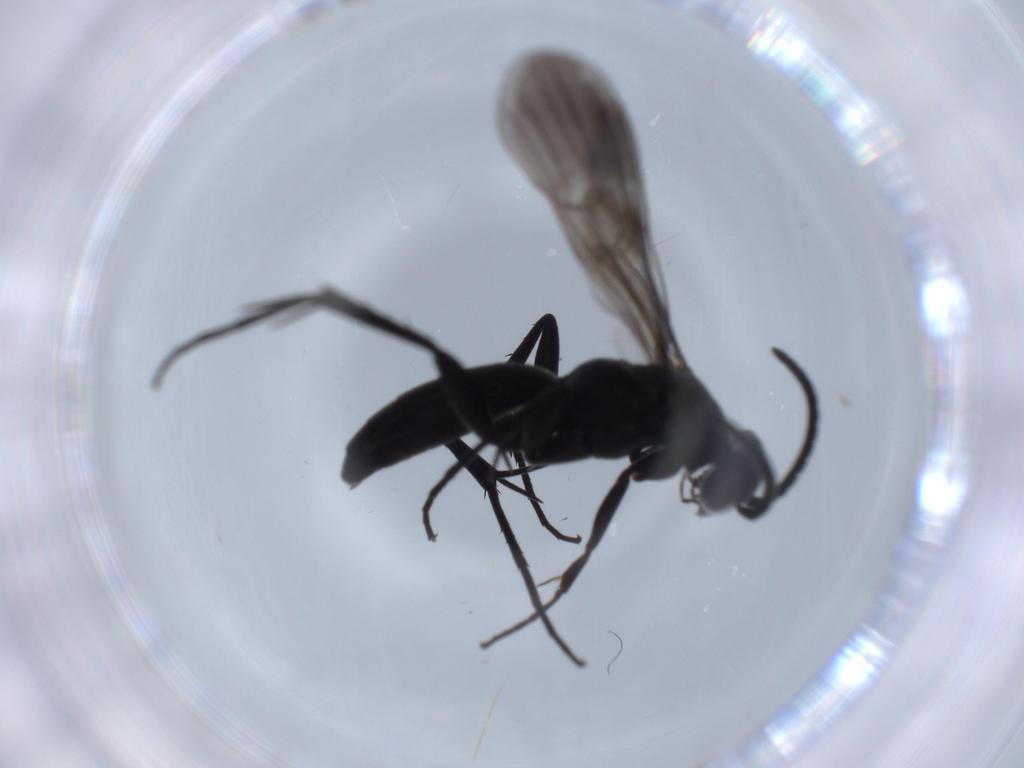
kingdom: Animalia
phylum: Arthropoda
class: Insecta
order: Hymenoptera
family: Pompilidae
